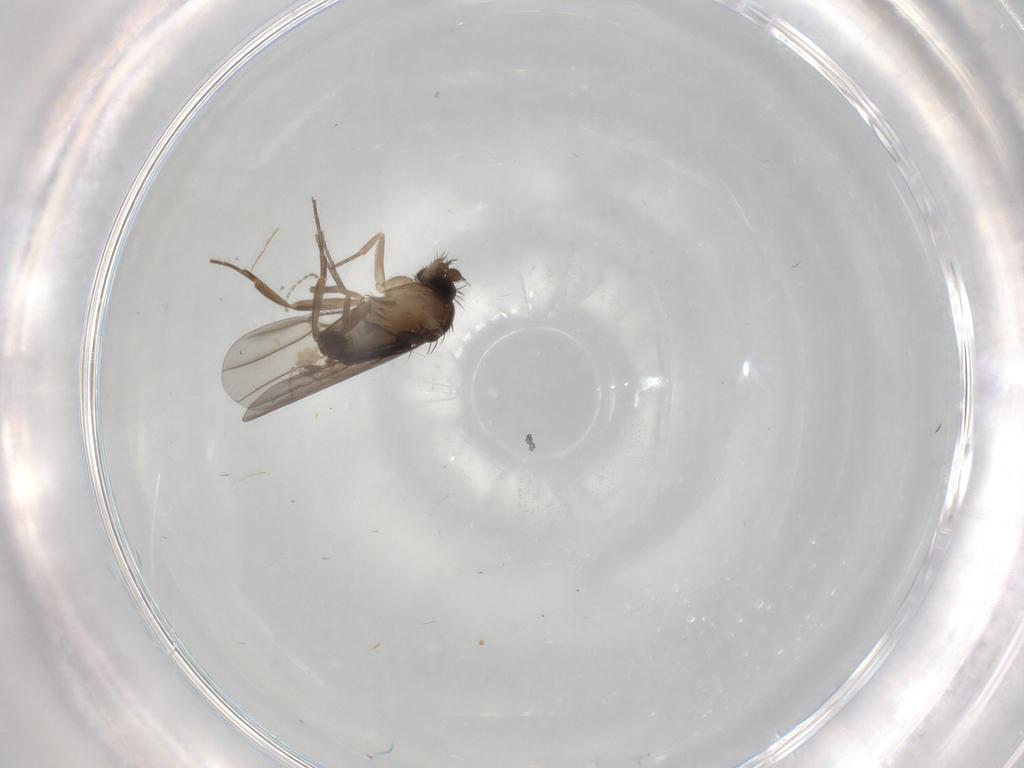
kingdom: Animalia
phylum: Arthropoda
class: Insecta
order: Diptera
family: Phoridae
